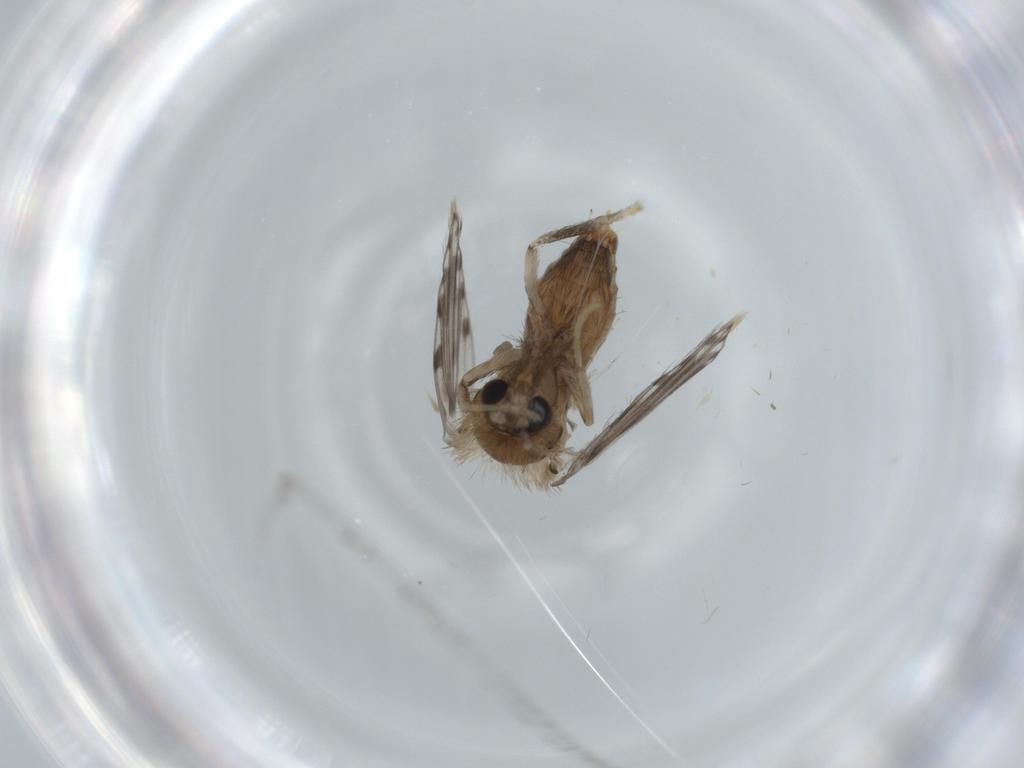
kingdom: Animalia
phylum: Arthropoda
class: Insecta
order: Diptera
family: Psychodidae
